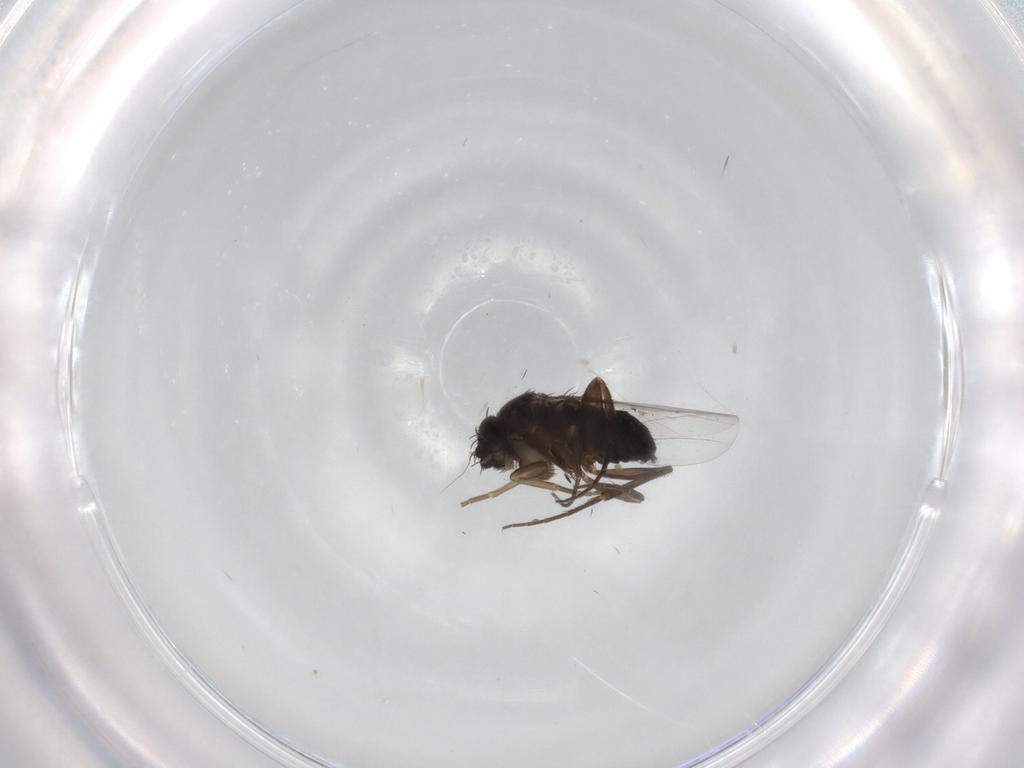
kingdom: Animalia
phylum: Arthropoda
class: Insecta
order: Diptera
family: Phoridae
